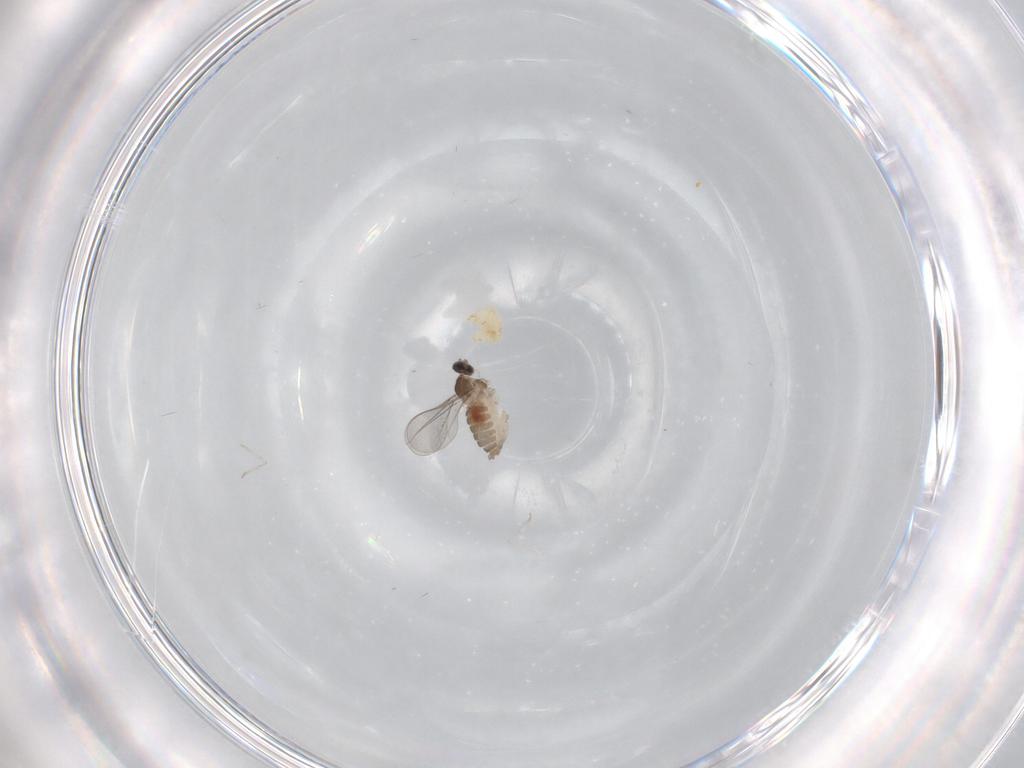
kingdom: Animalia
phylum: Arthropoda
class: Insecta
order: Diptera
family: Cecidomyiidae
